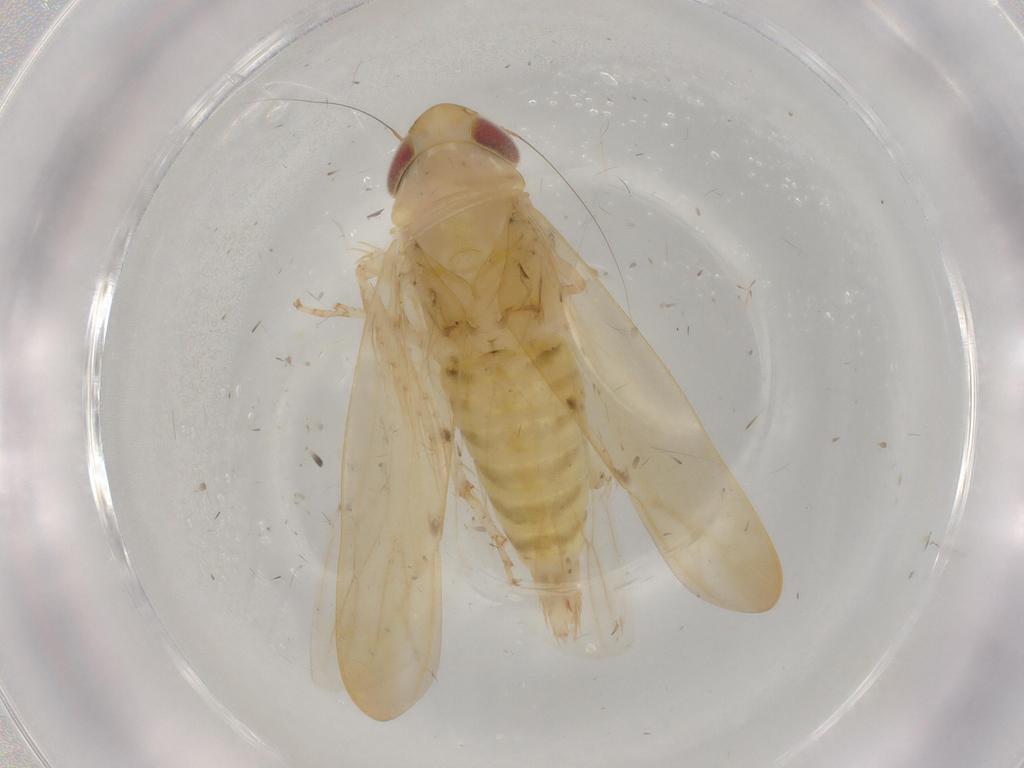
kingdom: Animalia
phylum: Arthropoda
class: Insecta
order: Hemiptera
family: Cicadellidae
